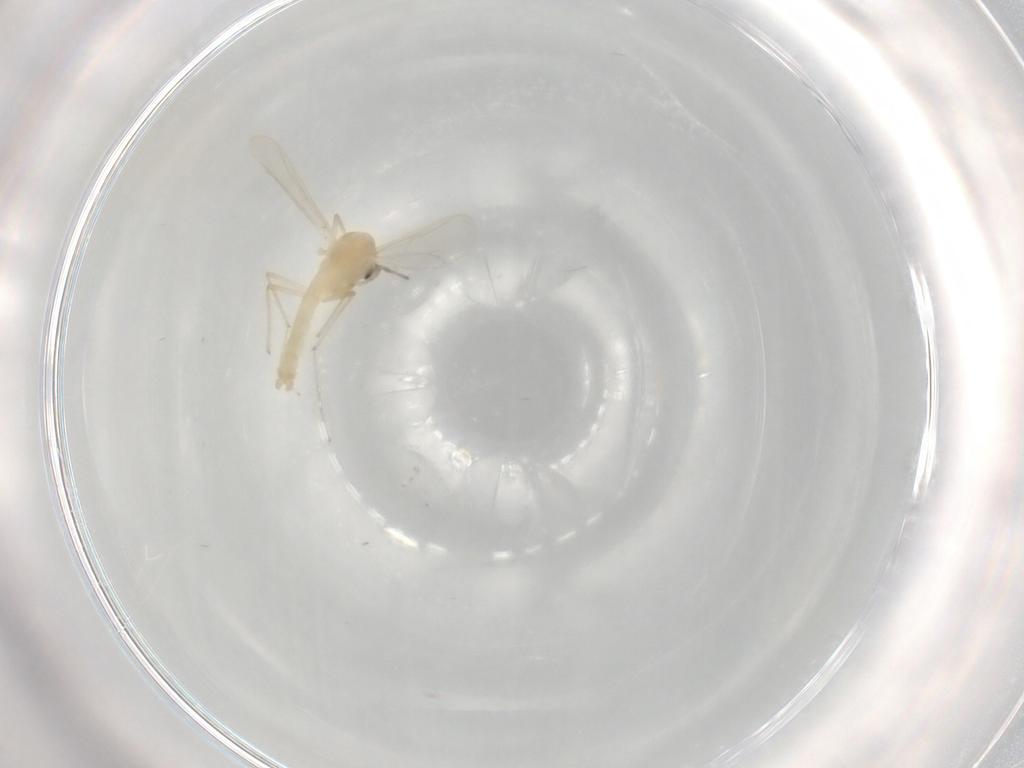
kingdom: Animalia
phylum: Arthropoda
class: Insecta
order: Diptera
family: Chironomidae
